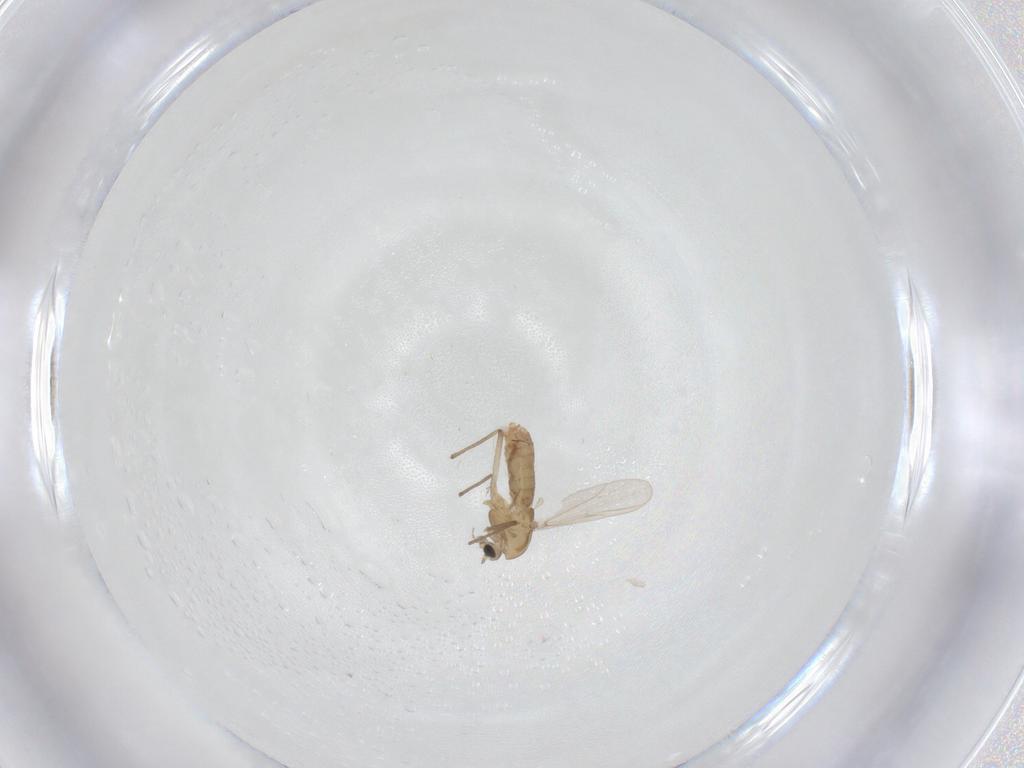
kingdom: Animalia
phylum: Arthropoda
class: Insecta
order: Diptera
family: Chironomidae
